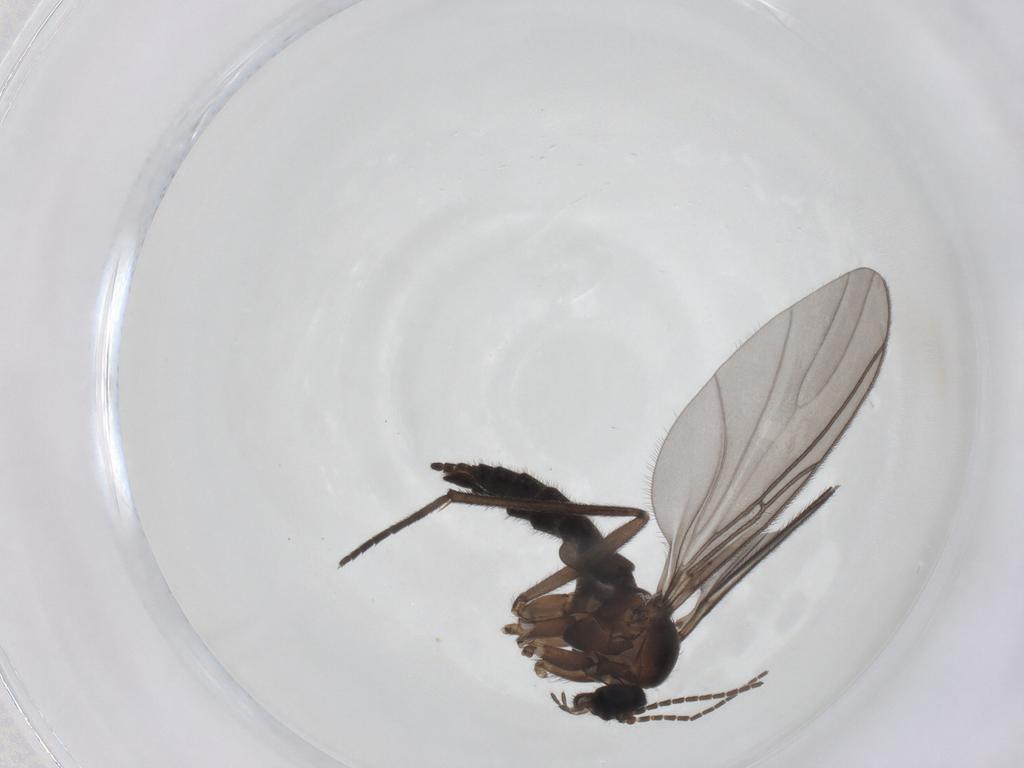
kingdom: Animalia
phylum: Arthropoda
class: Insecta
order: Diptera
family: Sciaridae
